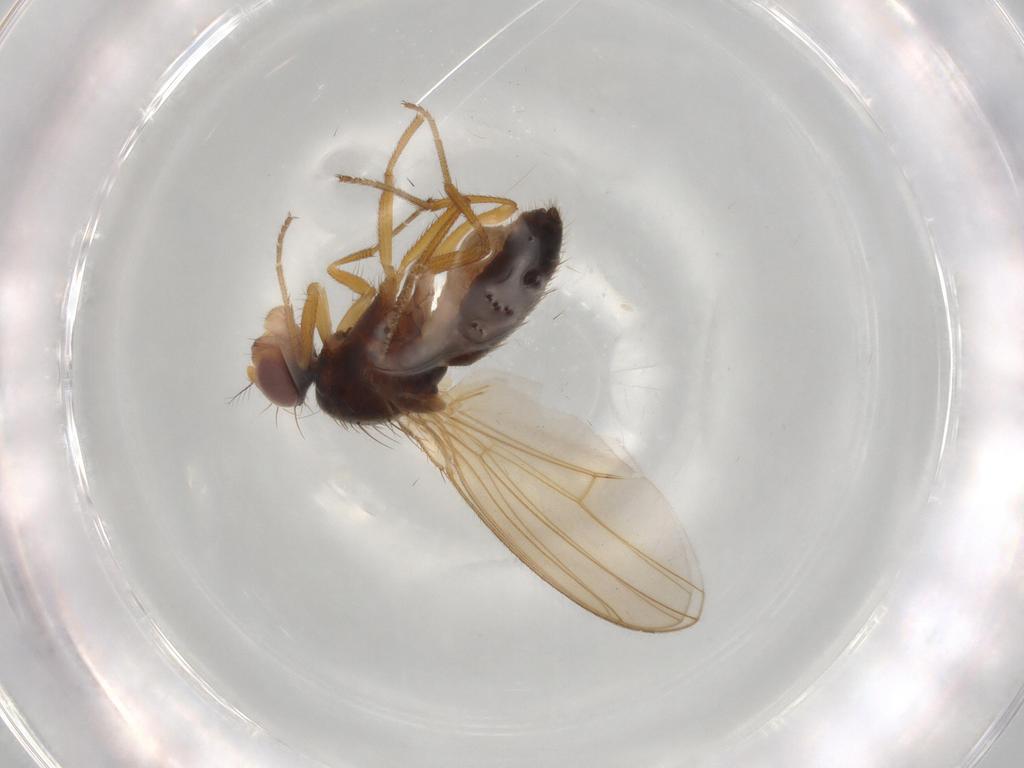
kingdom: Animalia
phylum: Arthropoda
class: Insecta
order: Diptera
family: Drosophilidae
